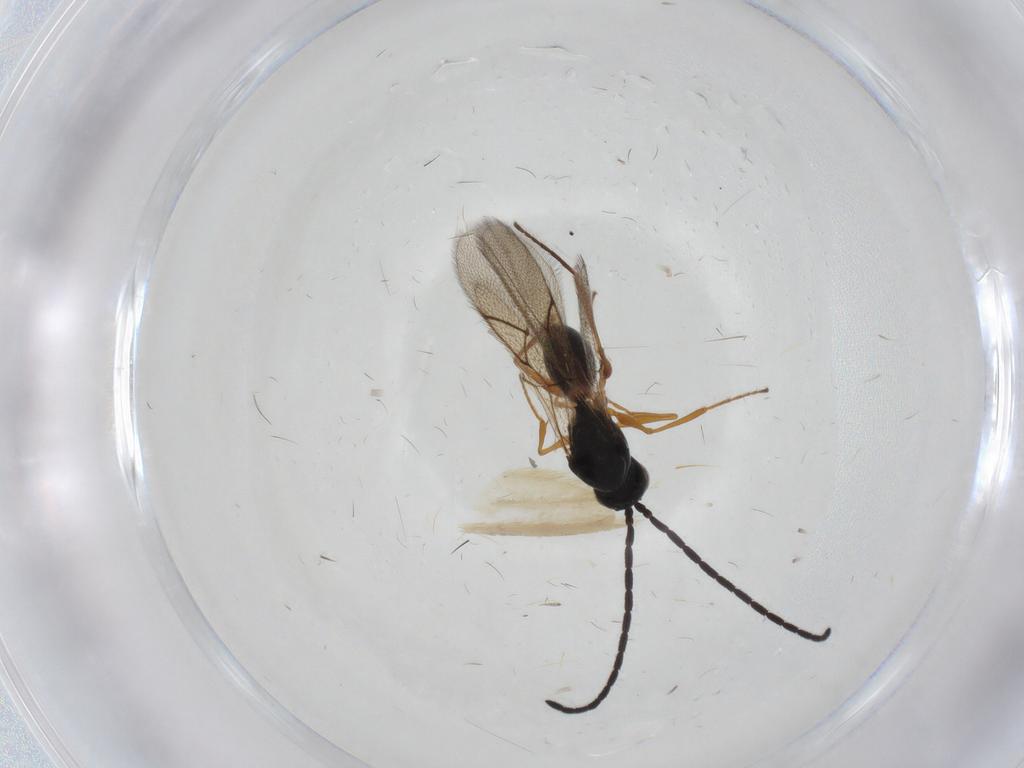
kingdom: Animalia
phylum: Arthropoda
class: Insecta
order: Hymenoptera
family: Figitidae
